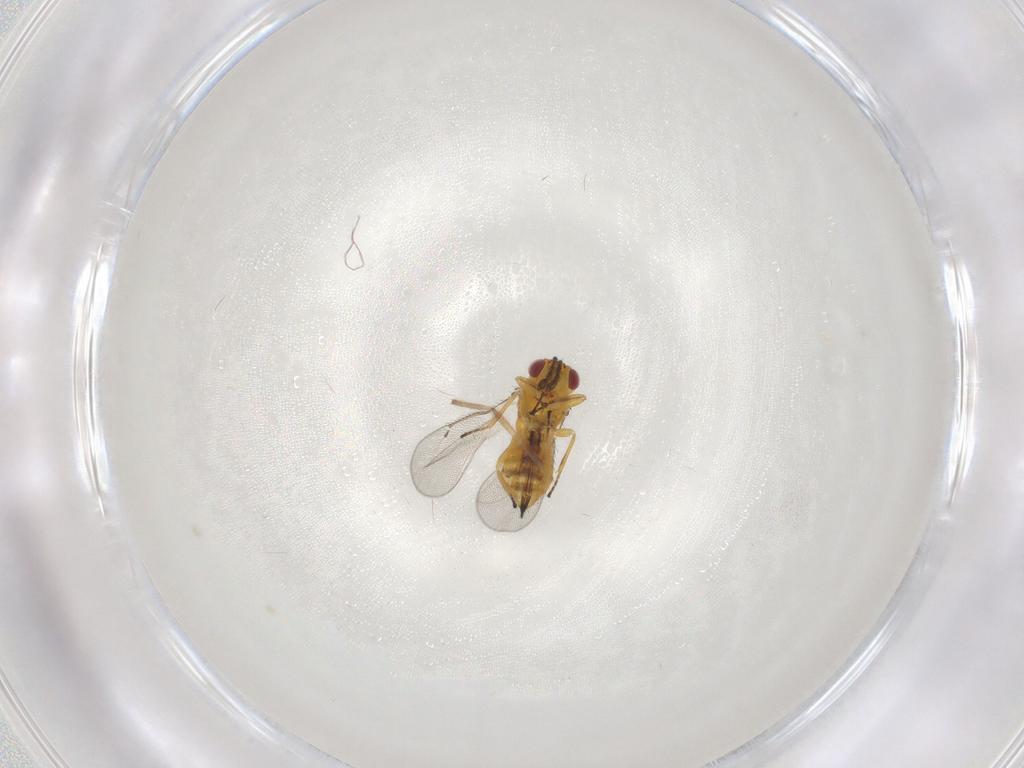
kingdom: Animalia
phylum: Arthropoda
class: Insecta
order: Hymenoptera
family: Eulophidae
